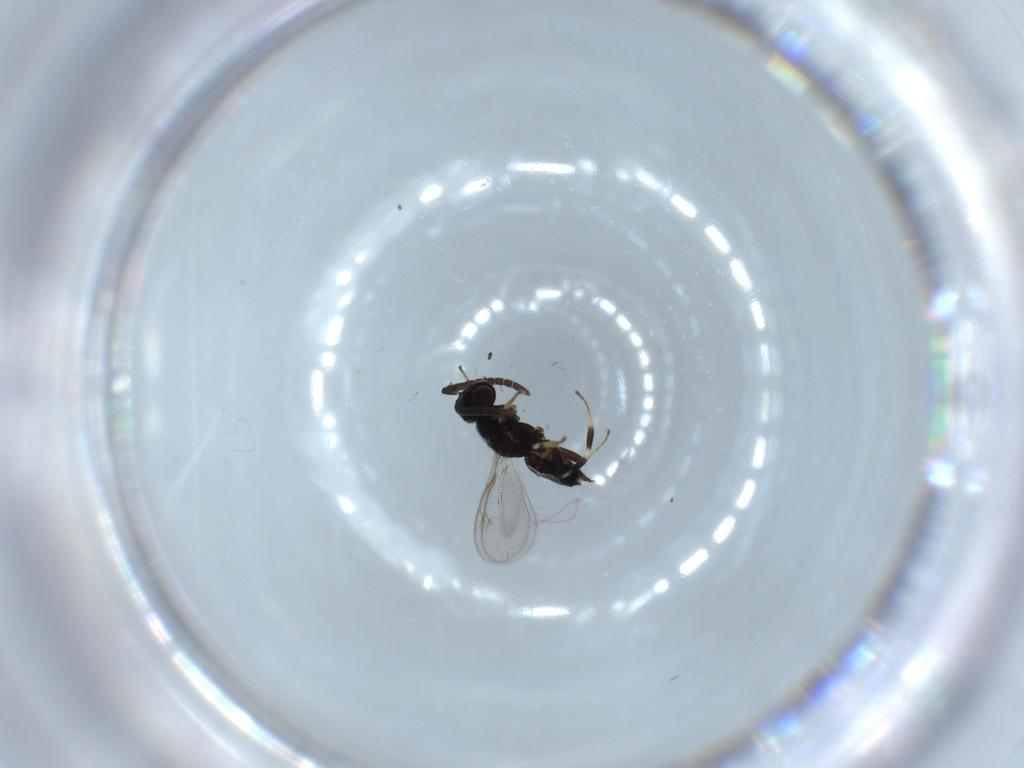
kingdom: Animalia
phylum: Arthropoda
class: Insecta
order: Hymenoptera
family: Eupelmidae
